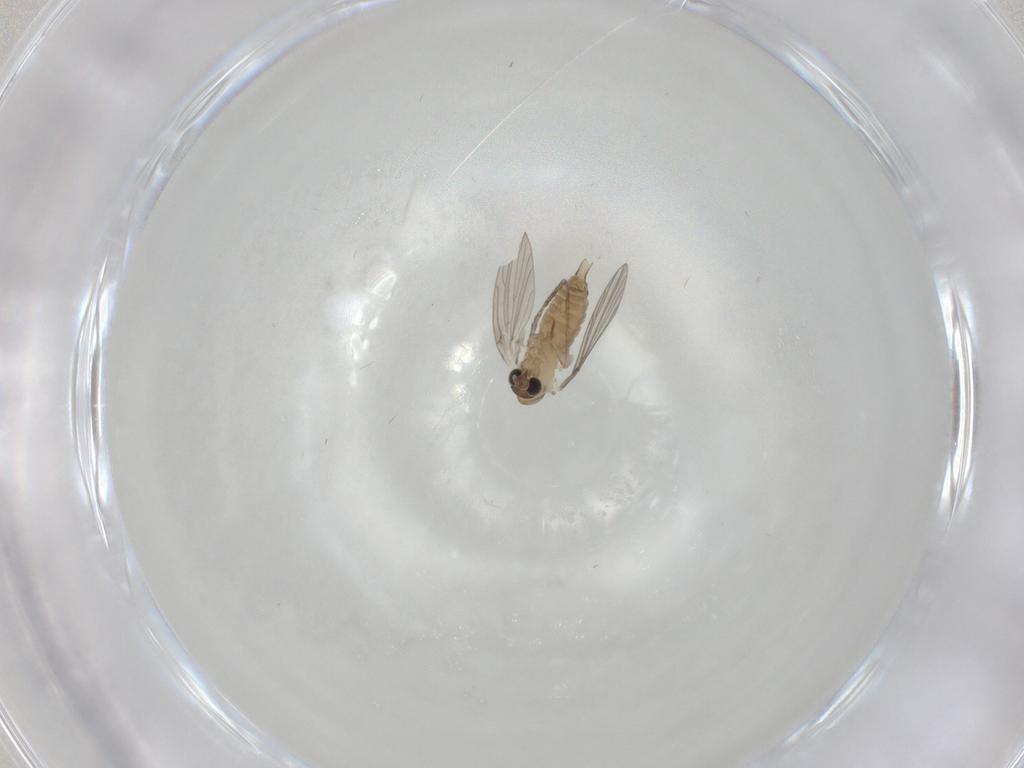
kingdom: Animalia
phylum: Arthropoda
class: Insecta
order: Diptera
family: Psychodidae
